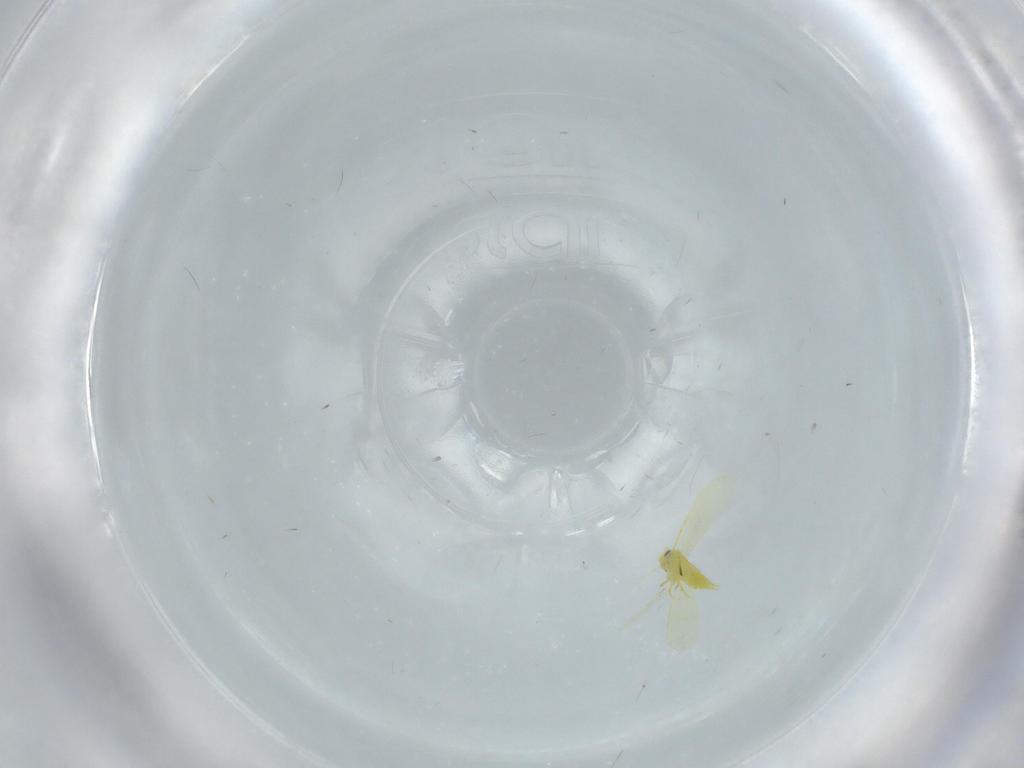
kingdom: Animalia
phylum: Arthropoda
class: Insecta
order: Hemiptera
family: Aleyrodidae
